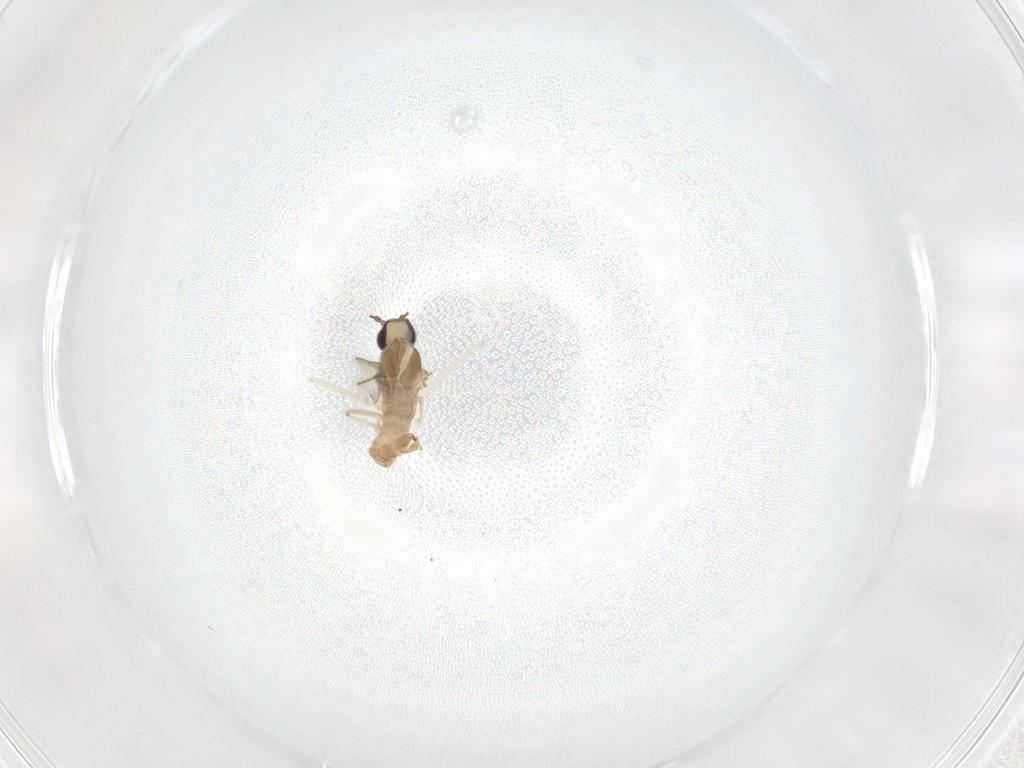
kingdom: Animalia
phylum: Arthropoda
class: Insecta
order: Diptera
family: Cecidomyiidae
